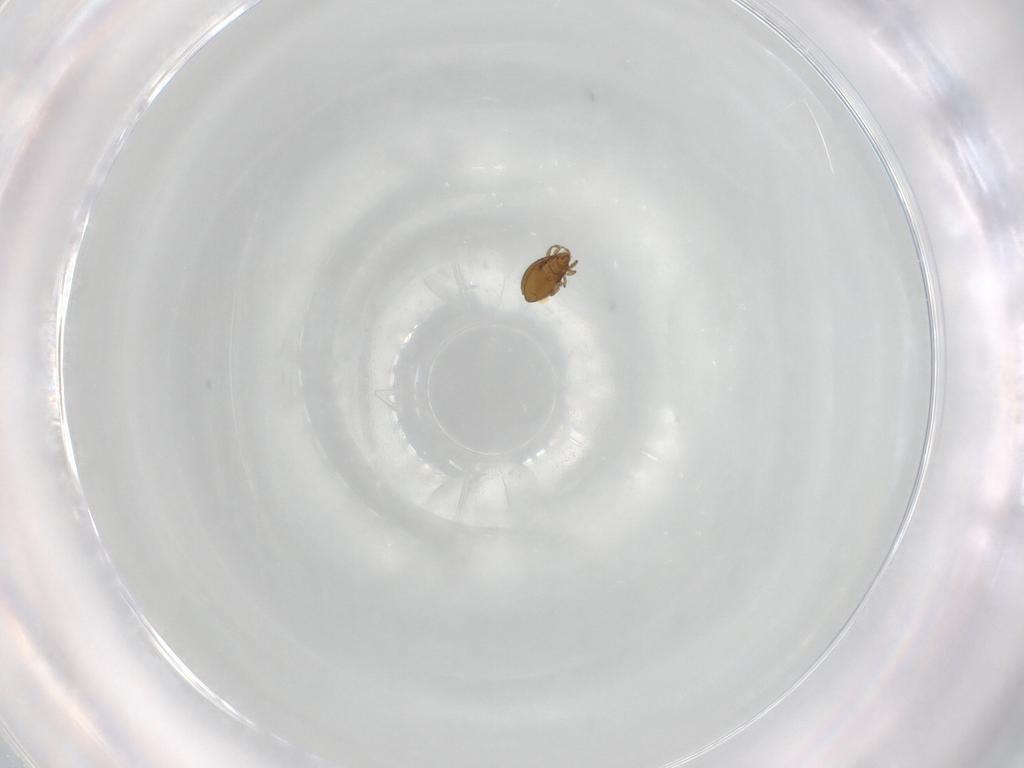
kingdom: Animalia
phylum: Arthropoda
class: Arachnida
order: Sarcoptiformes
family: Oribatulidae
